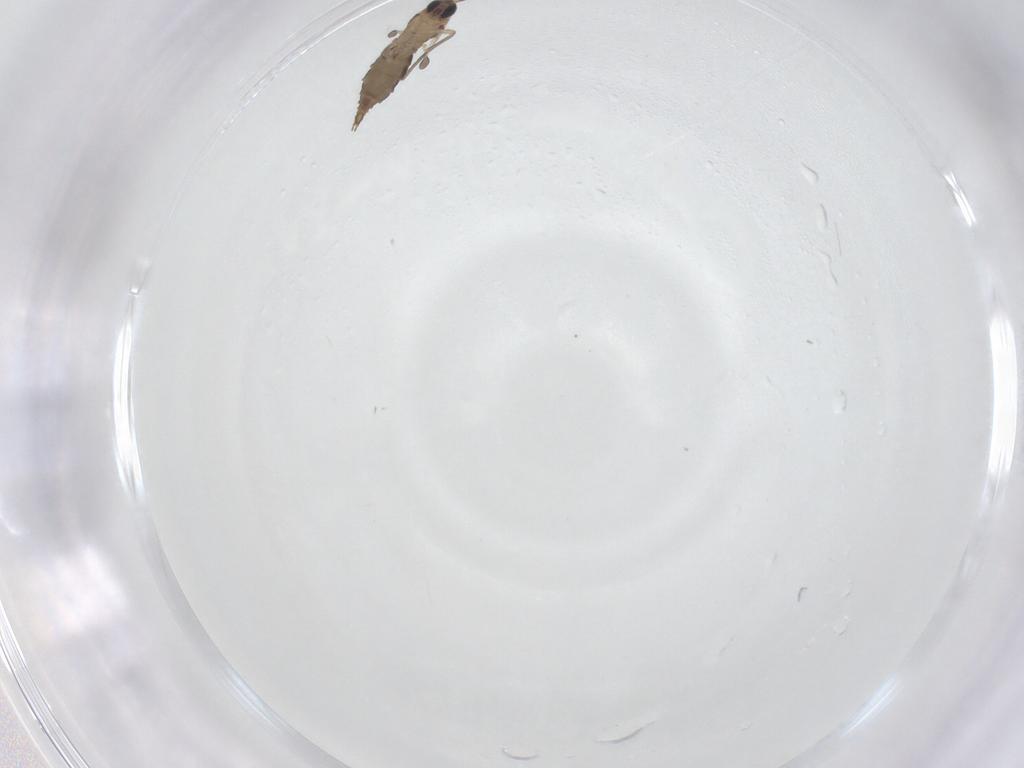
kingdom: Animalia
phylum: Arthropoda
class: Insecta
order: Diptera
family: Sciaridae
